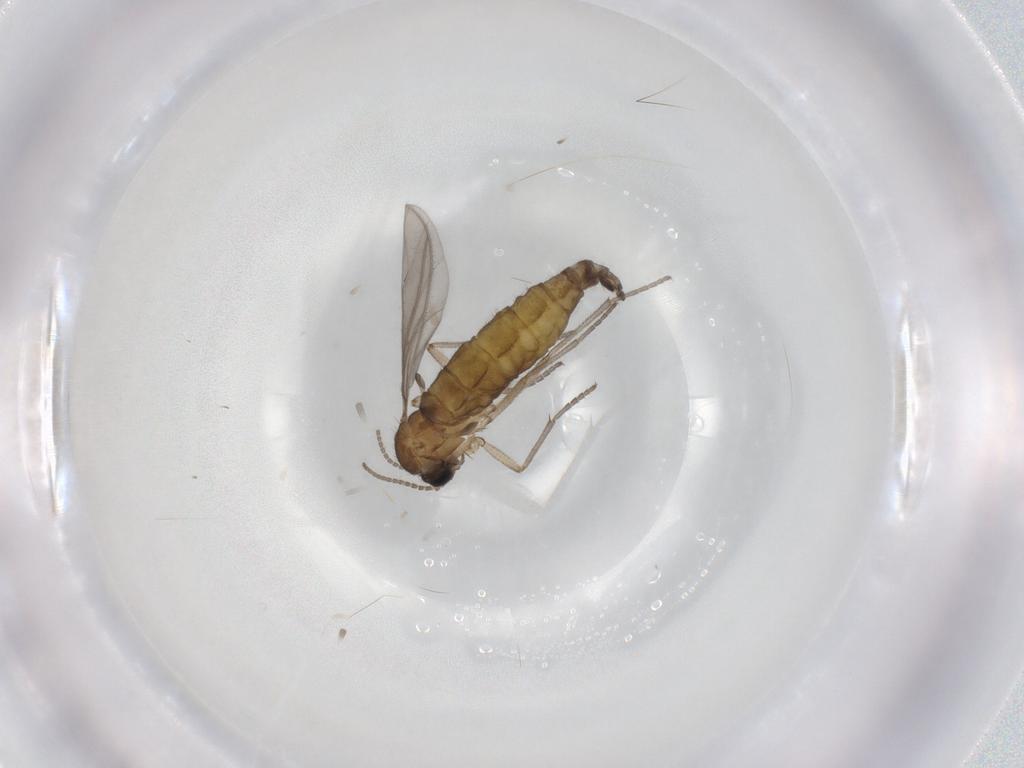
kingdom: Animalia
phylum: Arthropoda
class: Insecta
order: Diptera
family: Sciaridae
